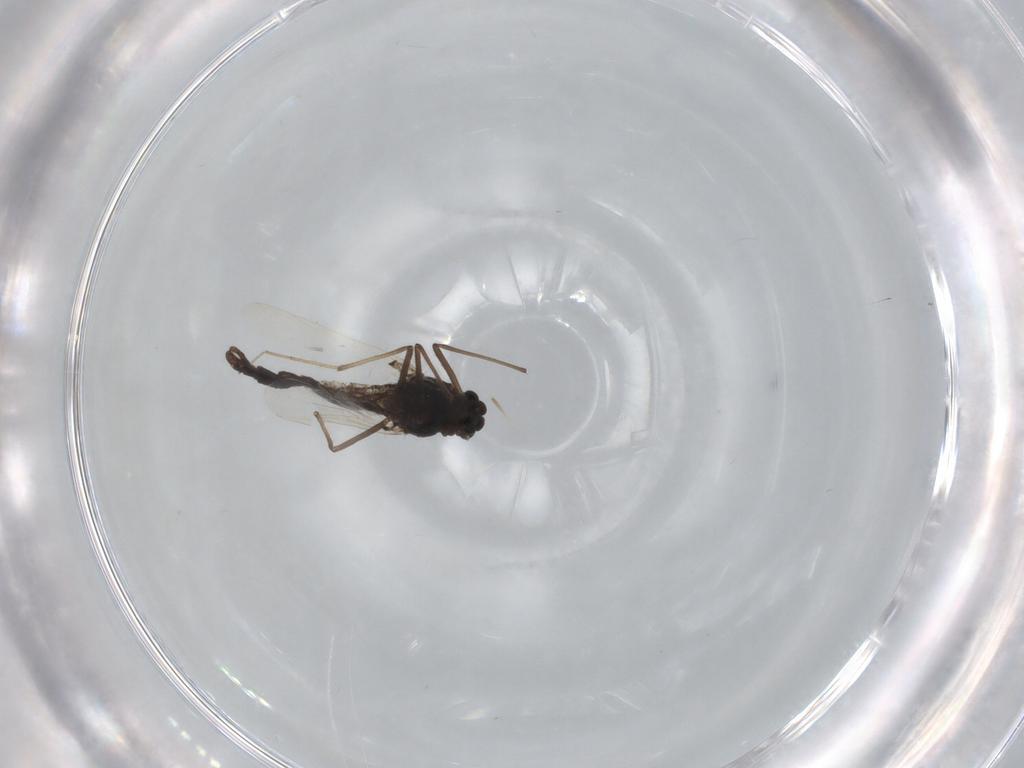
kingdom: Animalia
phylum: Arthropoda
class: Insecta
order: Diptera
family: Chironomidae
